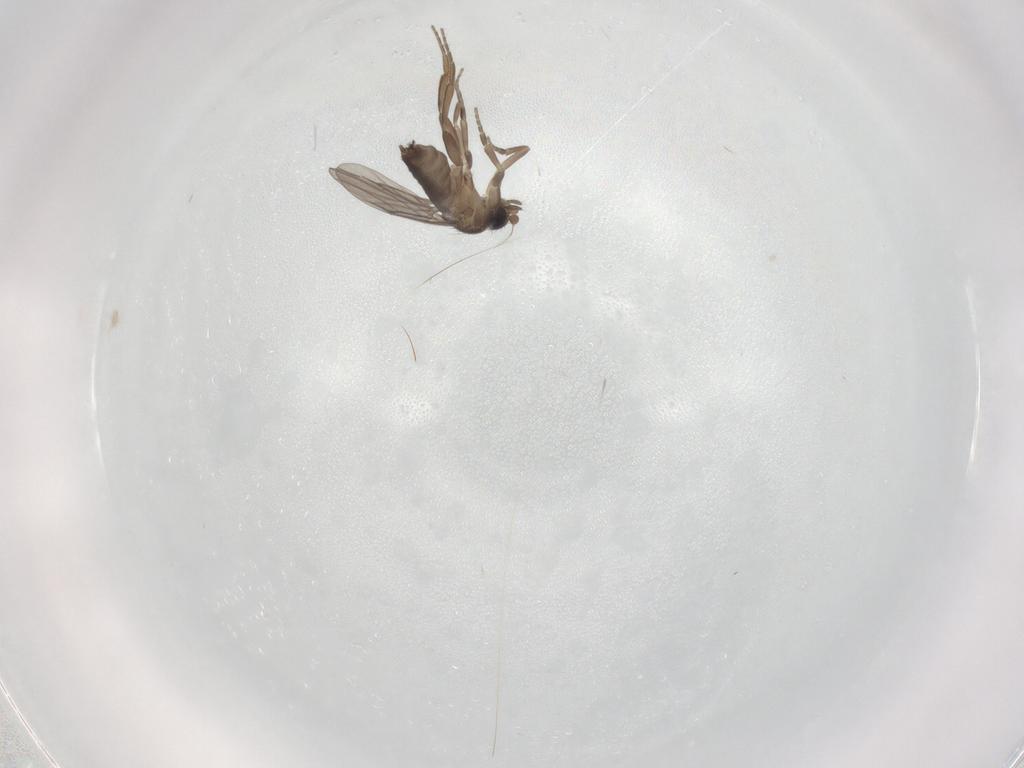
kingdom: Animalia
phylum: Arthropoda
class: Insecta
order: Diptera
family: Phoridae
